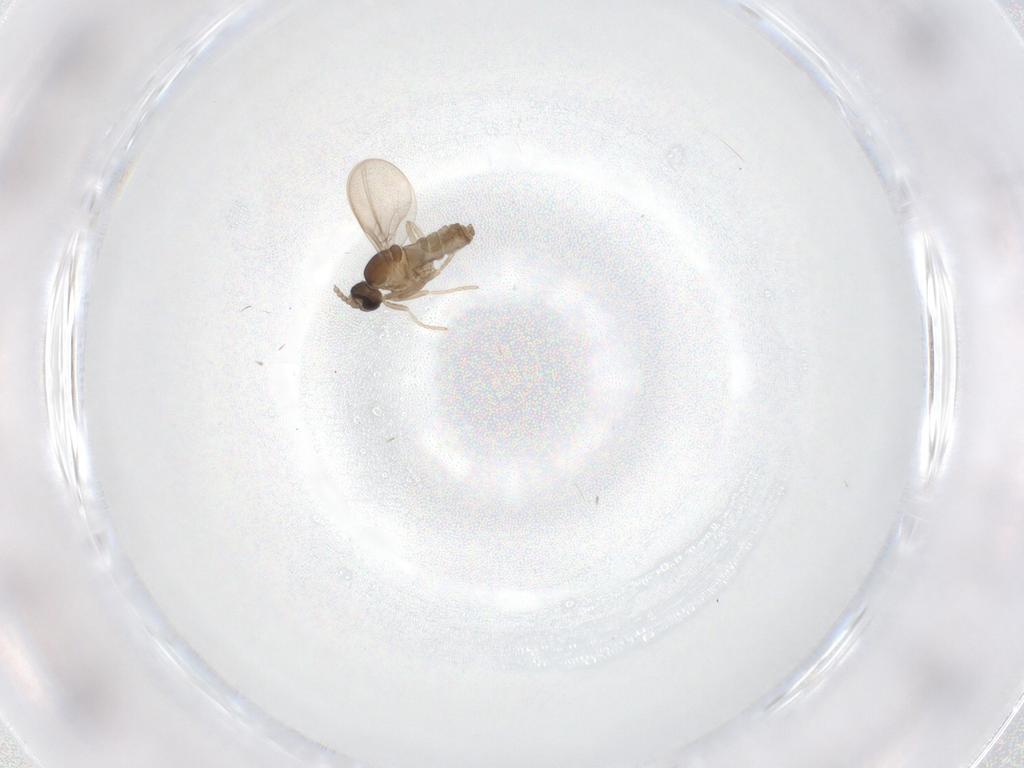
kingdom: Animalia
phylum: Arthropoda
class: Insecta
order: Diptera
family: Cecidomyiidae
